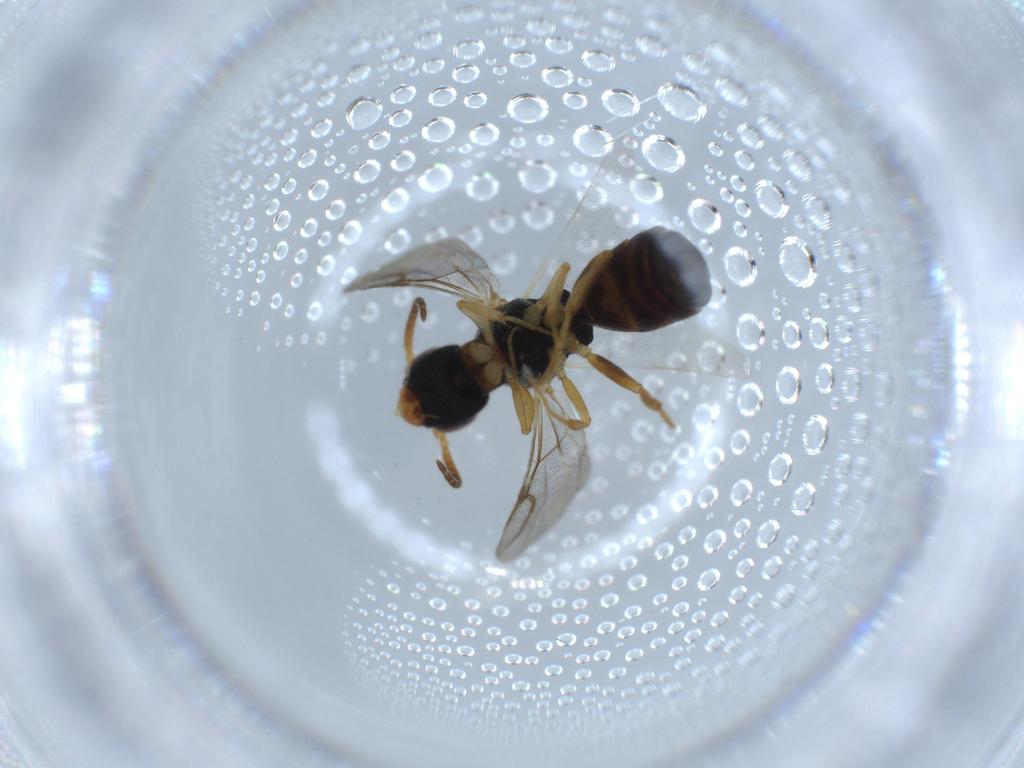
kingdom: Animalia
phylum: Arthropoda
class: Insecta
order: Hymenoptera
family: Bethylidae
